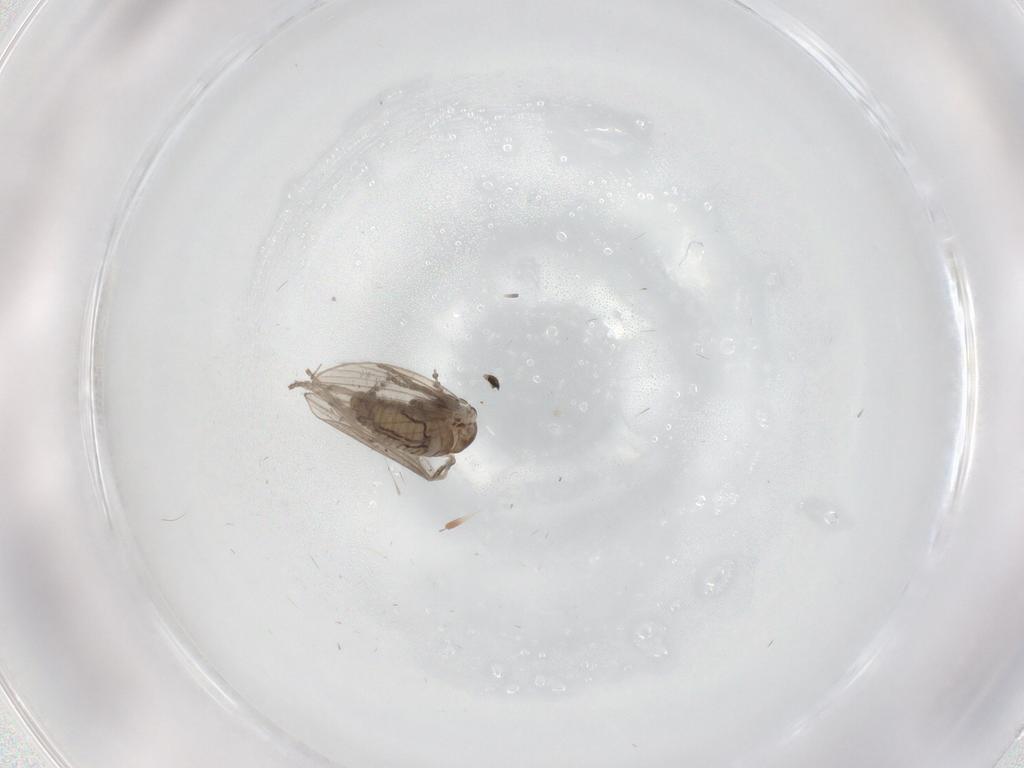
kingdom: Animalia
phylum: Arthropoda
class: Insecta
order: Diptera
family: Psychodidae
